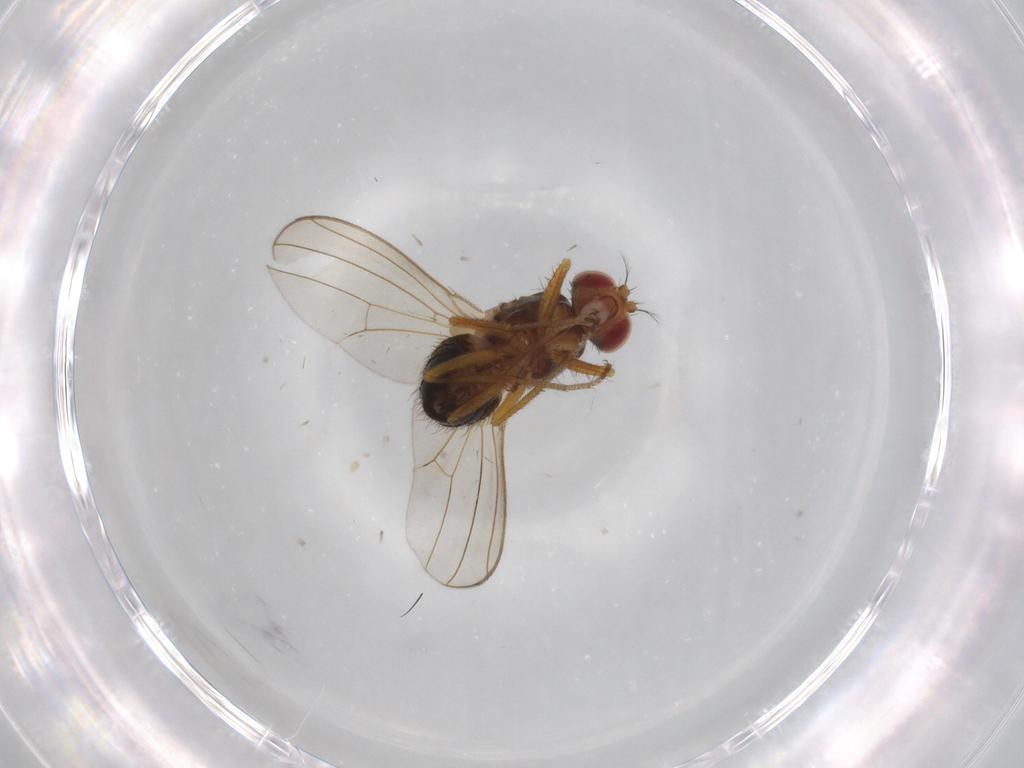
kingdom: Animalia
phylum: Arthropoda
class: Insecta
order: Diptera
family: Drosophilidae
